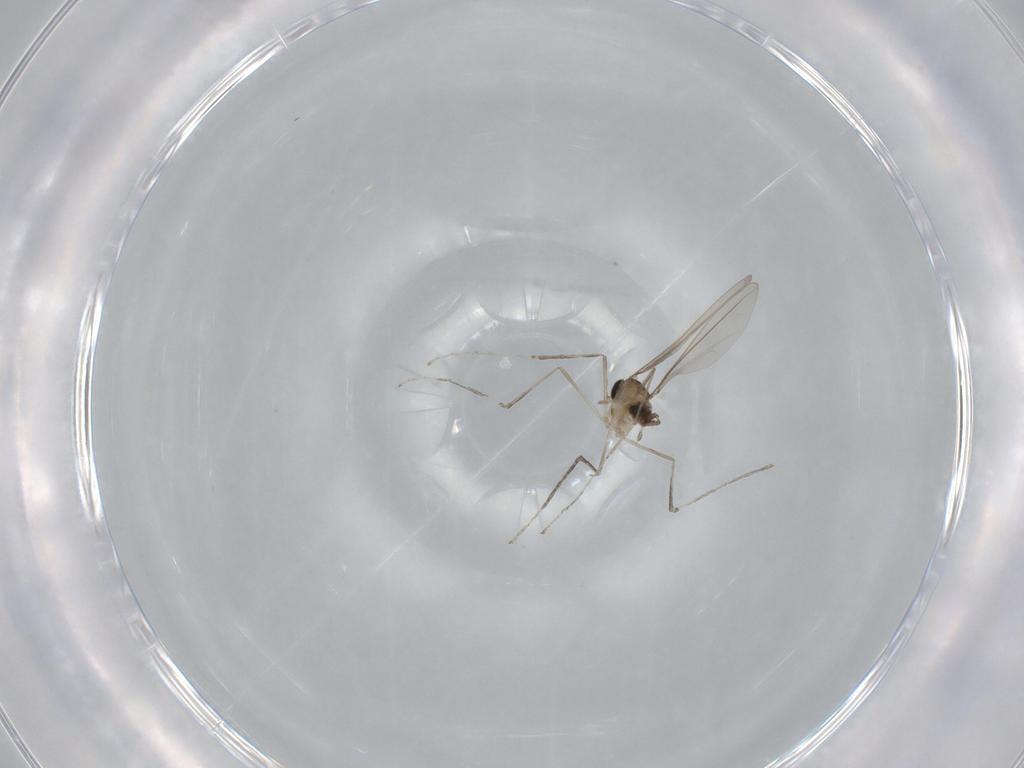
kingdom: Animalia
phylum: Arthropoda
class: Insecta
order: Diptera
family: Cecidomyiidae
